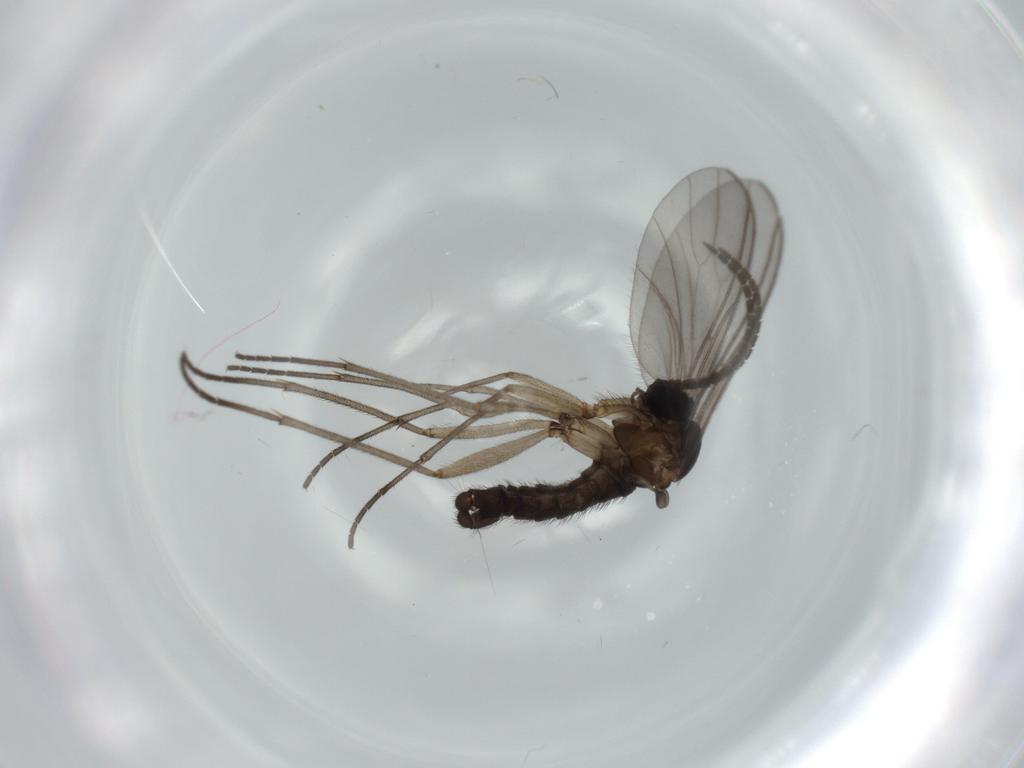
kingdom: Animalia
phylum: Arthropoda
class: Insecta
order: Diptera
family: Sciaridae
